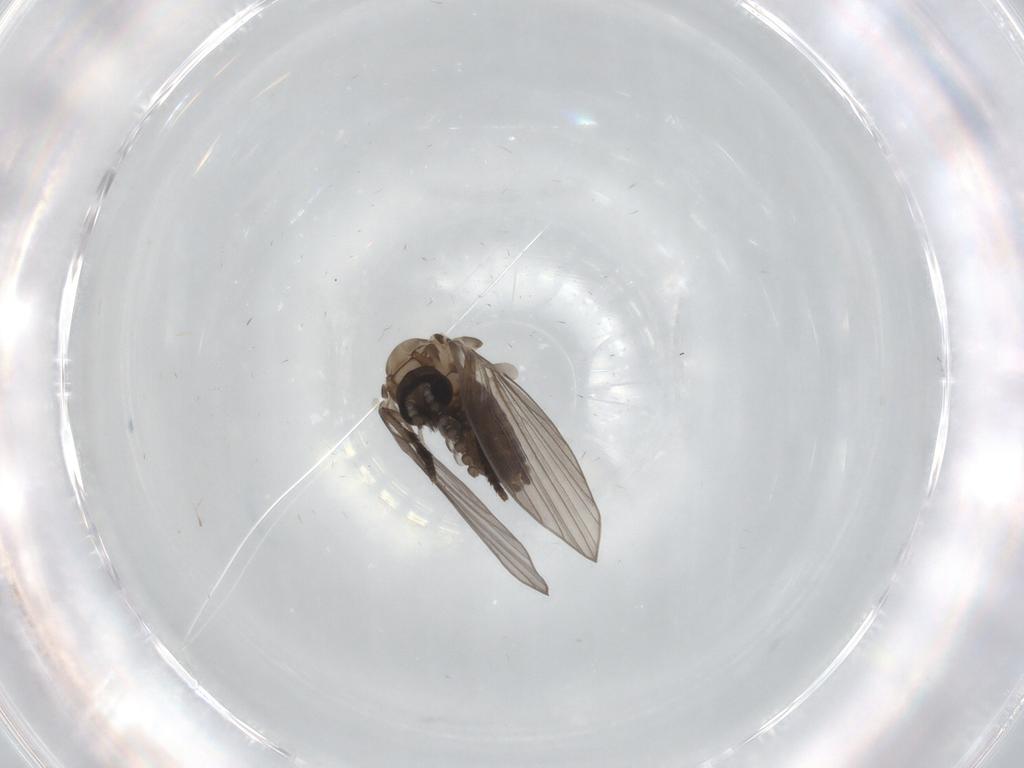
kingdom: Animalia
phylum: Arthropoda
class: Insecta
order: Diptera
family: Psychodidae
